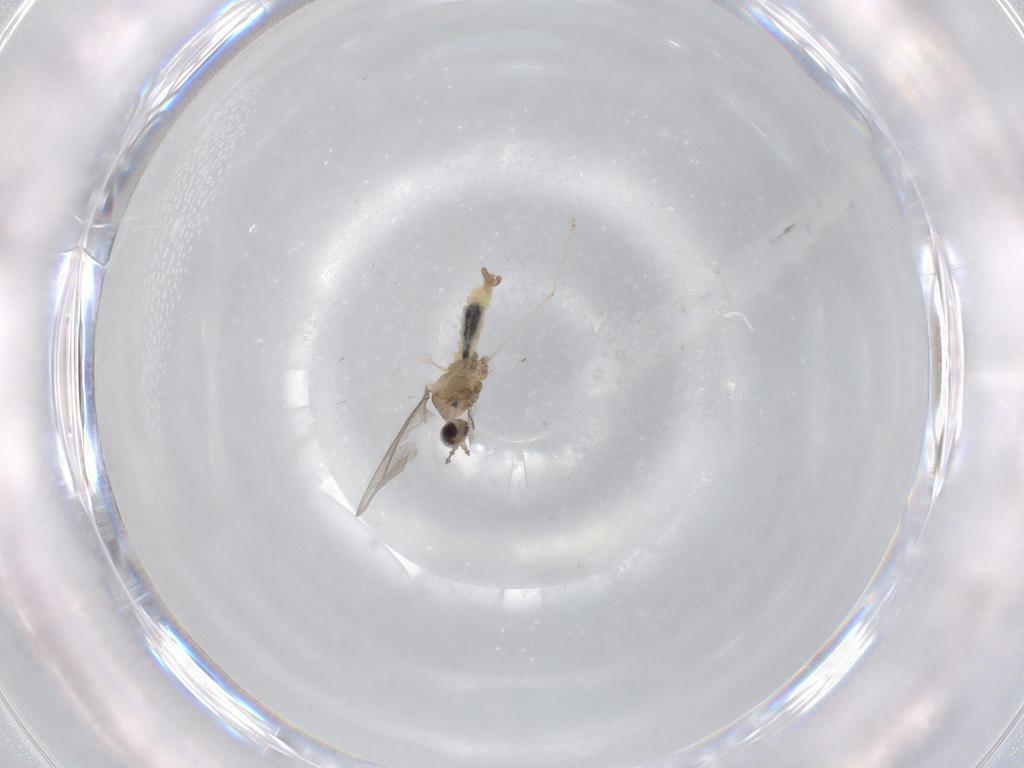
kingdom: Animalia
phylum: Arthropoda
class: Insecta
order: Diptera
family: Cecidomyiidae
